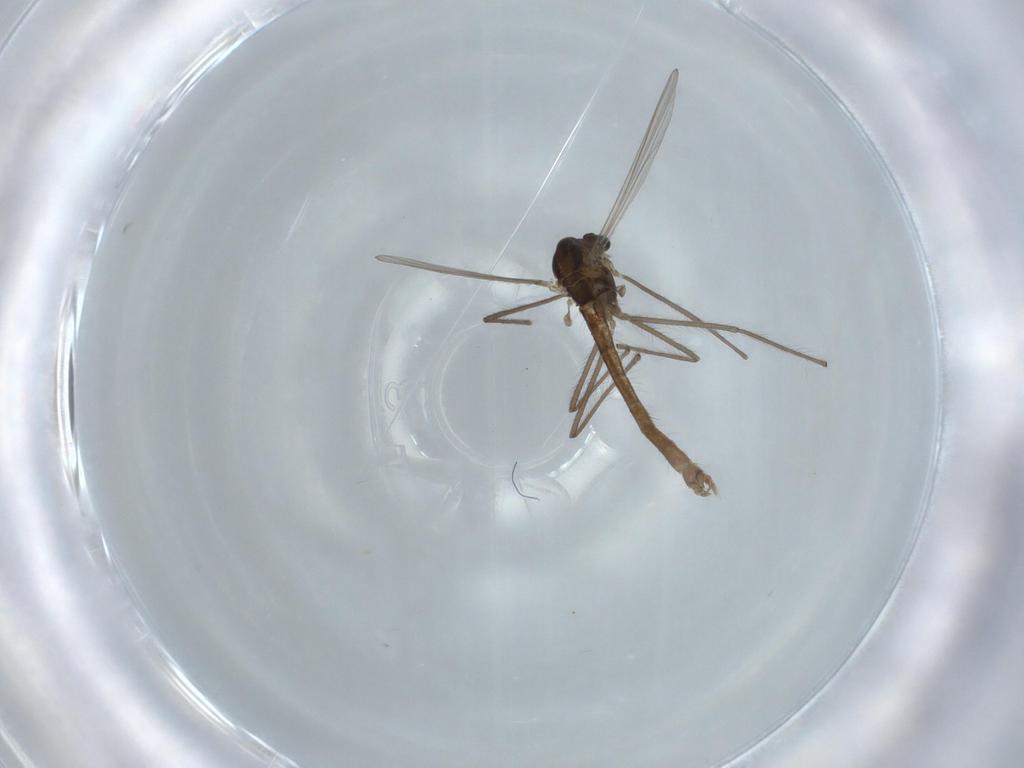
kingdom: Animalia
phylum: Arthropoda
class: Insecta
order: Diptera
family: Chironomidae
